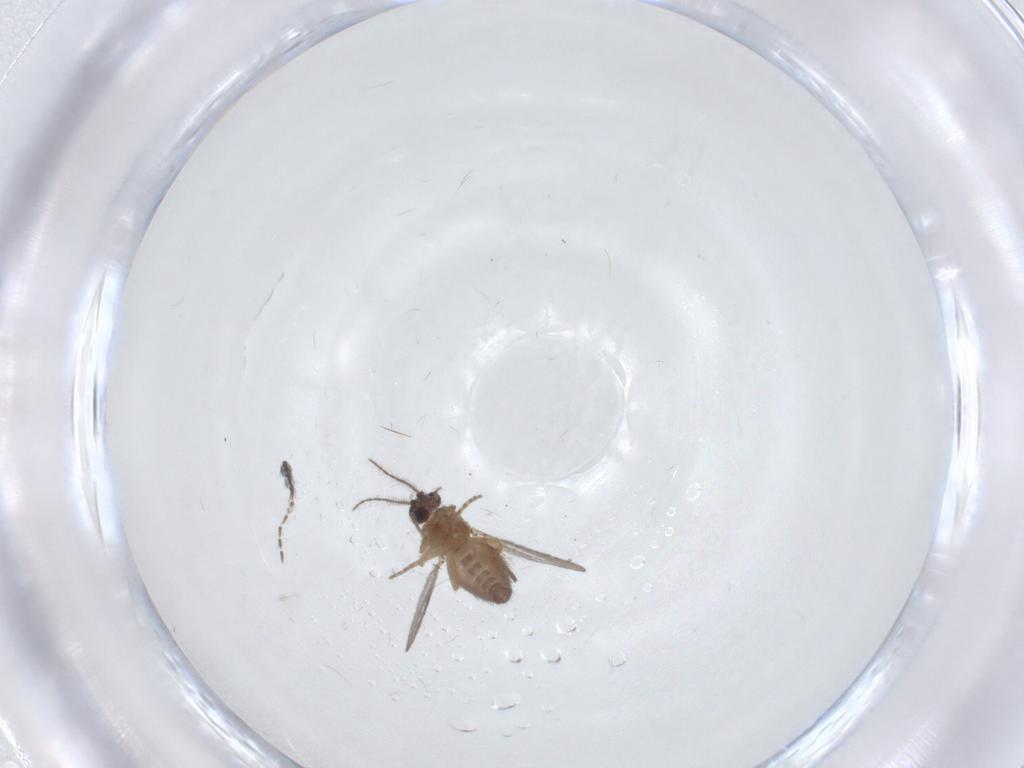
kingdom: Animalia
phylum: Arthropoda
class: Insecta
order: Diptera
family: Ceratopogonidae
